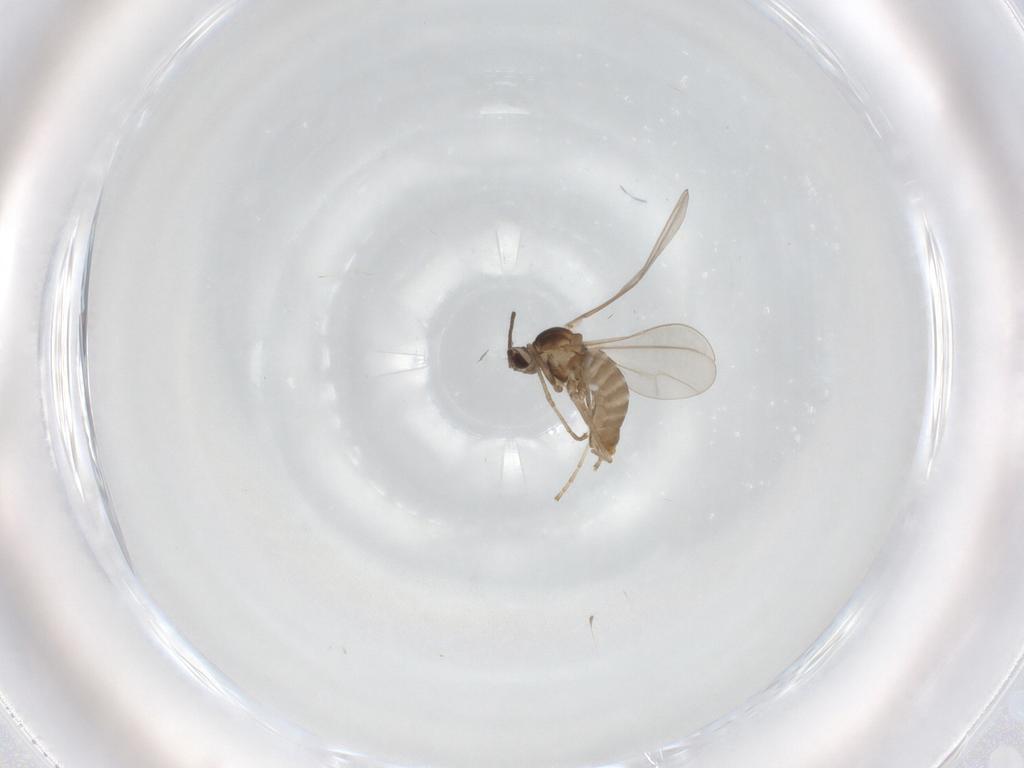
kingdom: Animalia
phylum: Arthropoda
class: Insecta
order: Diptera
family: Cecidomyiidae
